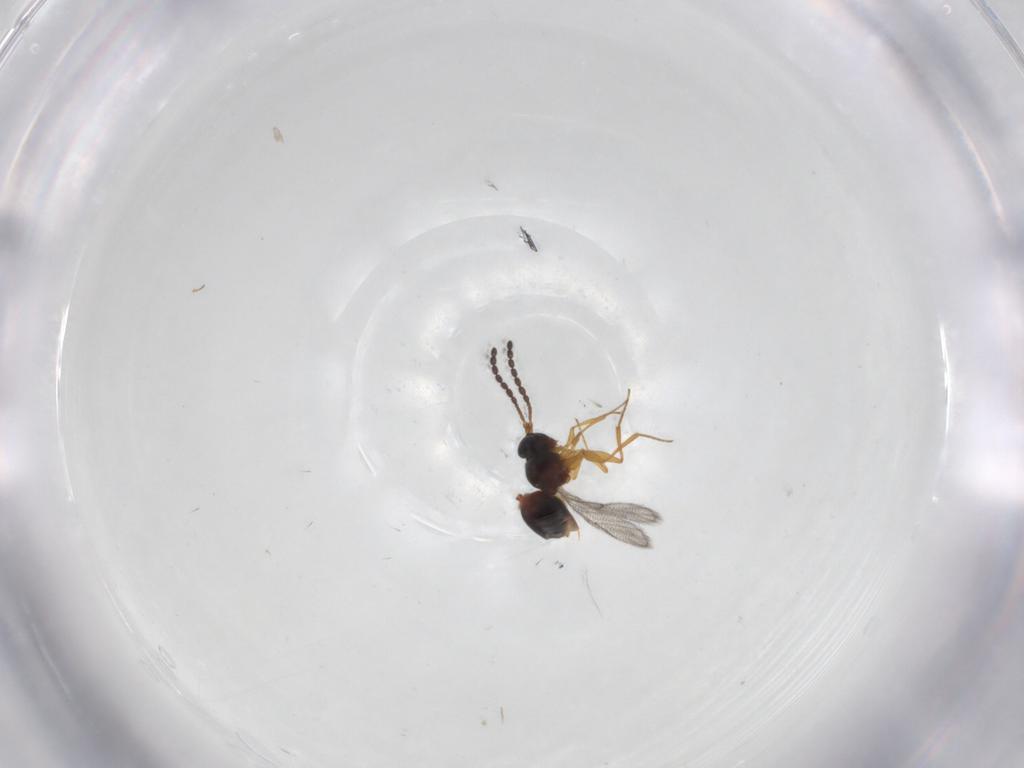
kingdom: Animalia
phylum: Arthropoda
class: Insecta
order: Hymenoptera
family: Figitidae
